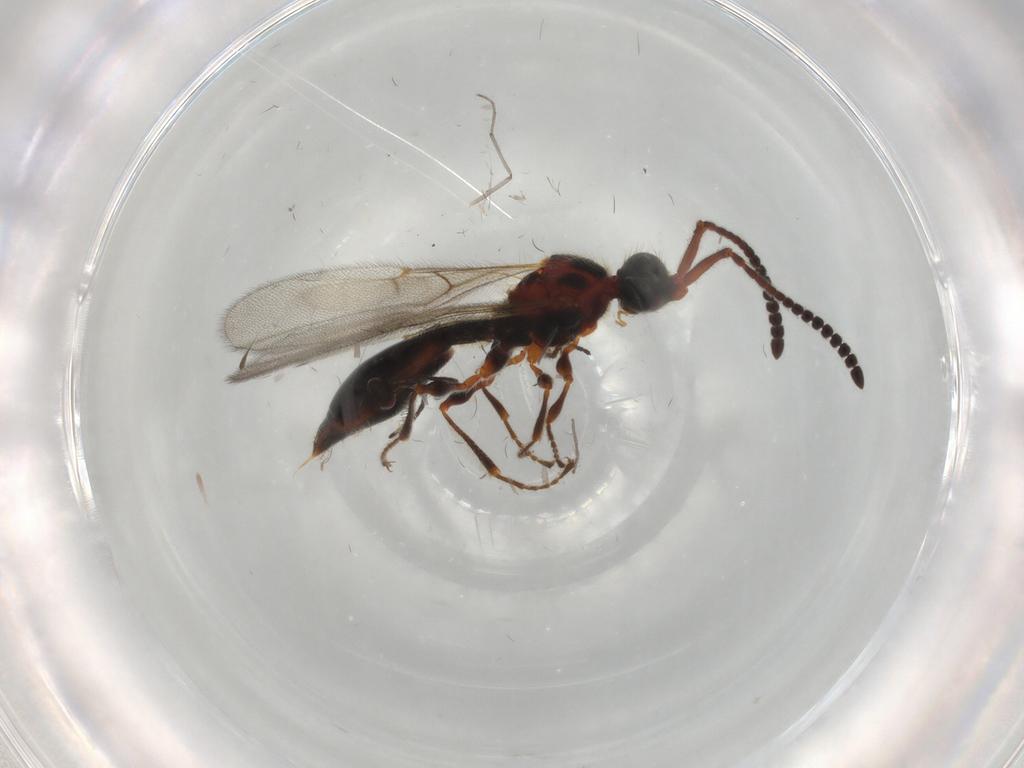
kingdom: Animalia
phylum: Arthropoda
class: Insecta
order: Hymenoptera
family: Diapriidae
